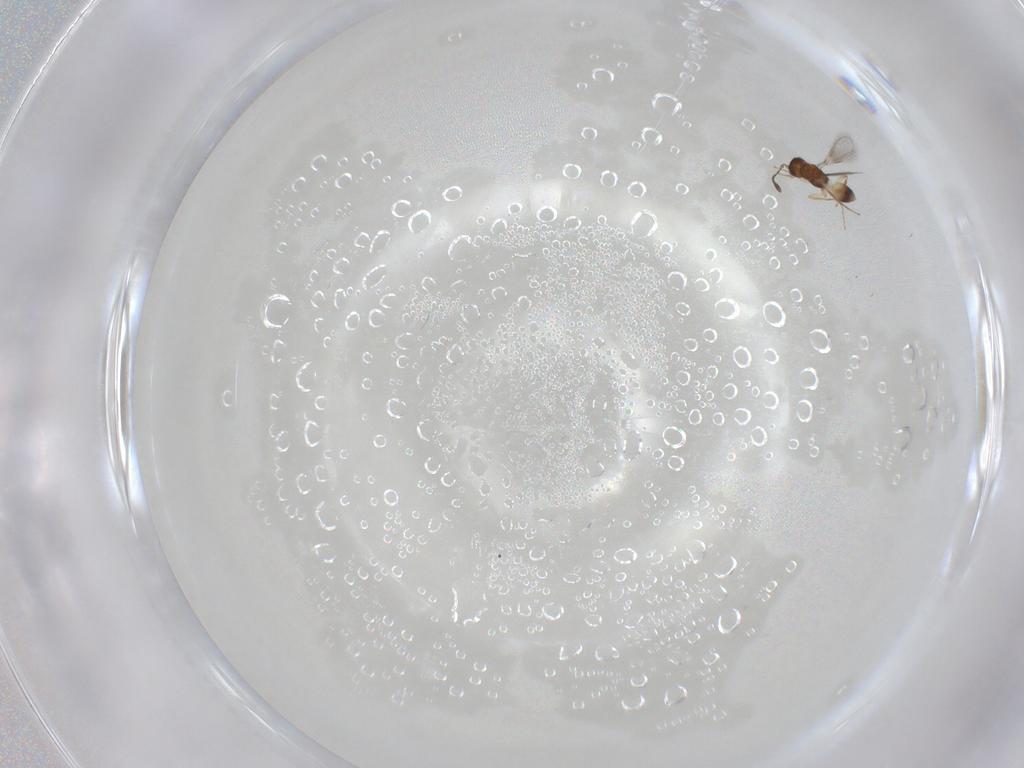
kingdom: Animalia
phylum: Arthropoda
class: Insecta
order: Hymenoptera
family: Mymaridae
